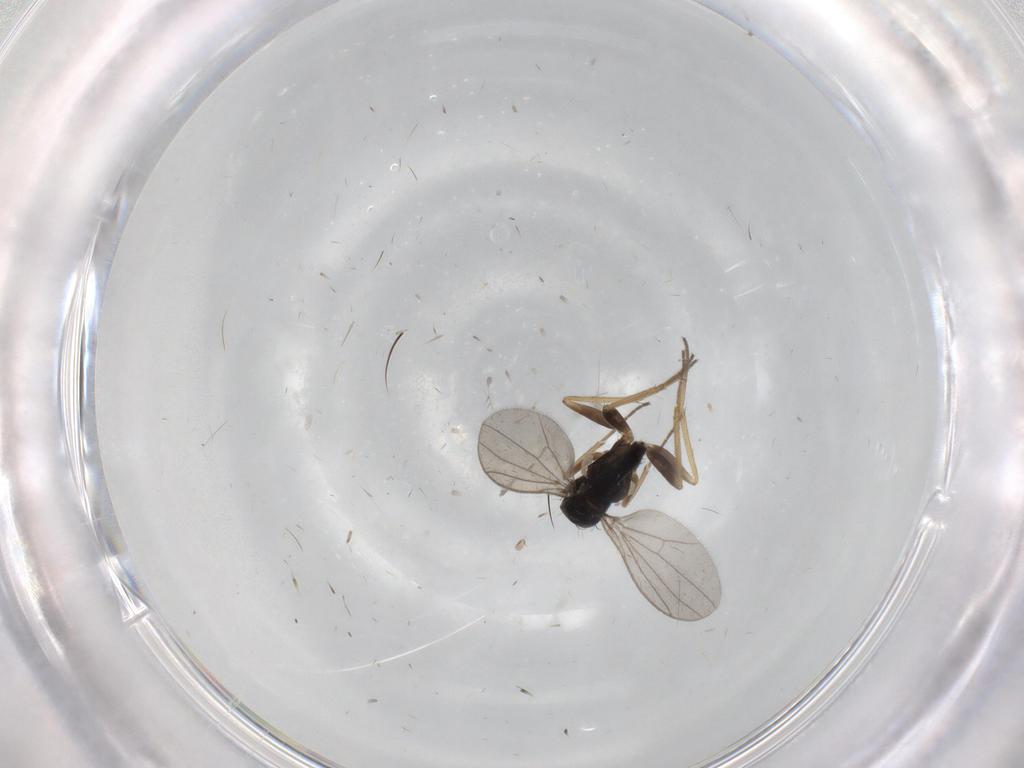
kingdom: Animalia
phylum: Arthropoda
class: Insecta
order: Diptera
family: Dolichopodidae
